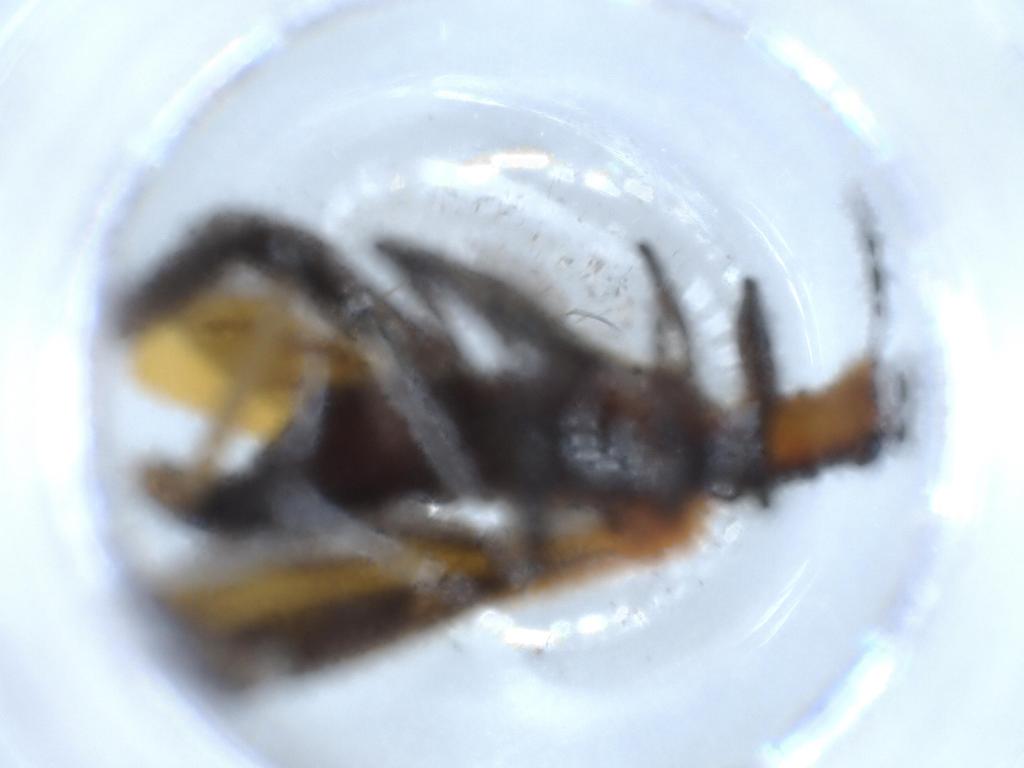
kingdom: Animalia
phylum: Arthropoda
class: Insecta
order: Coleoptera
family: Cleridae
